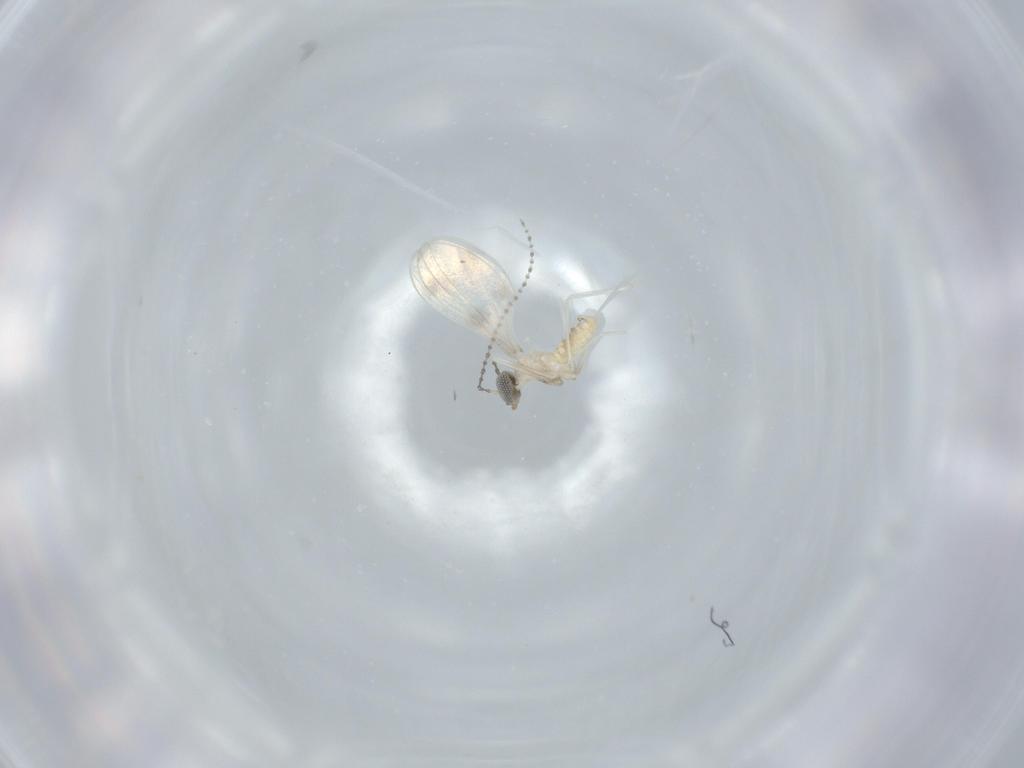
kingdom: Animalia
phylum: Arthropoda
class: Insecta
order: Diptera
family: Cecidomyiidae
